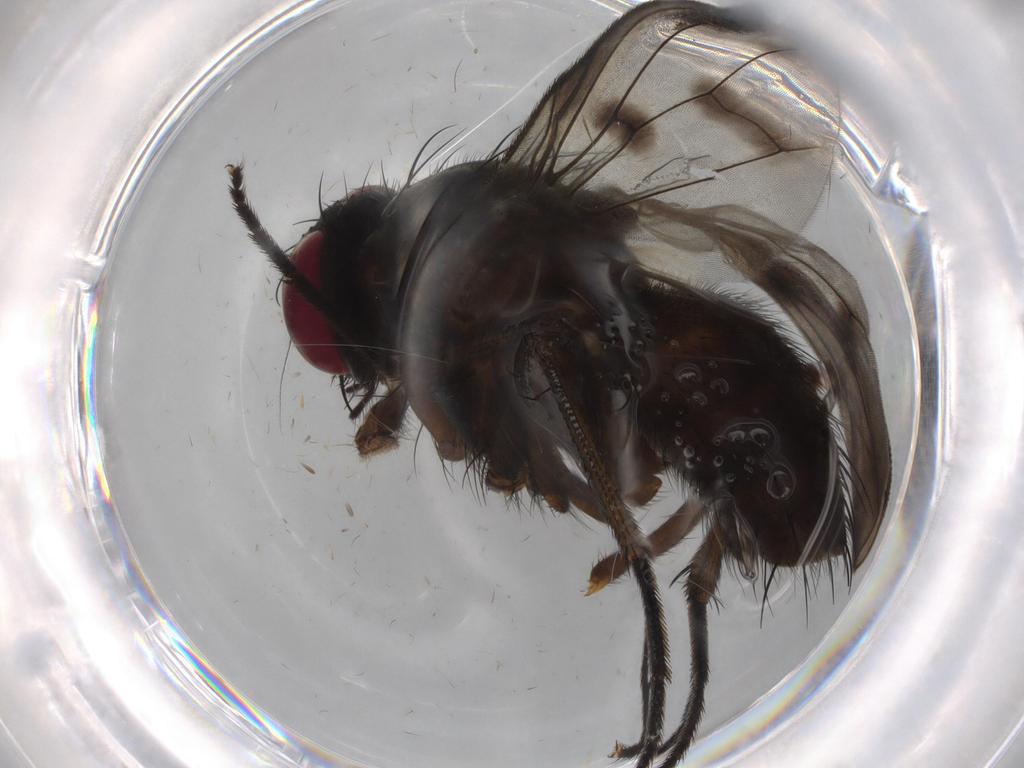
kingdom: Animalia
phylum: Arthropoda
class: Insecta
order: Diptera
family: Muscidae
